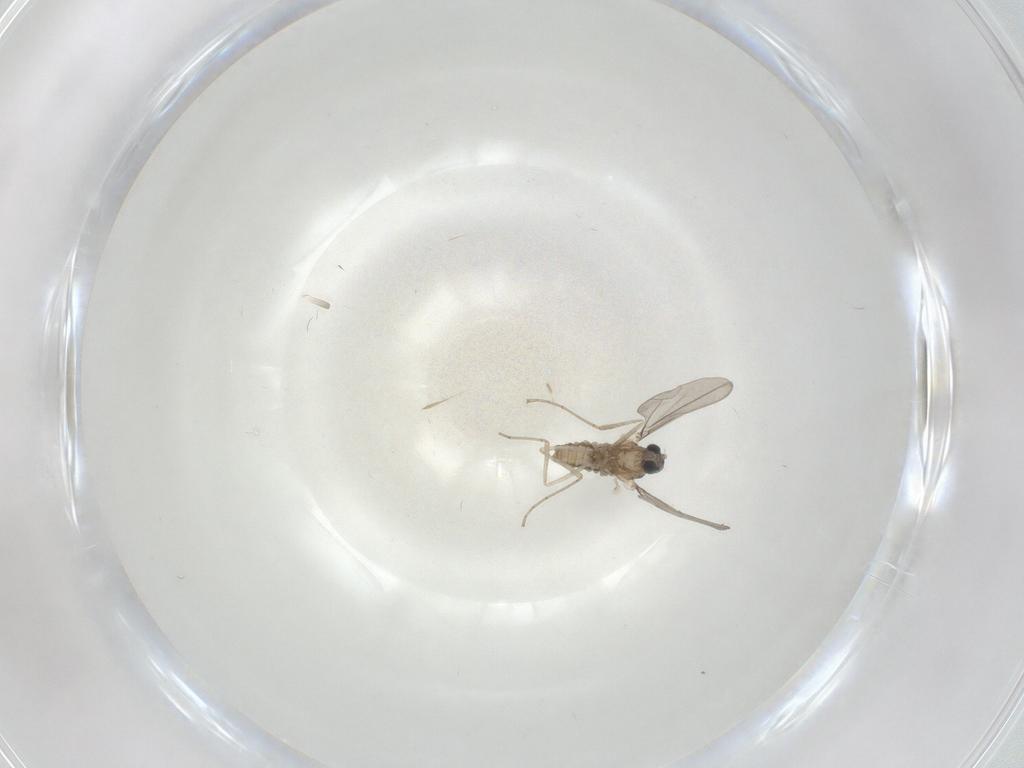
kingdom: Animalia
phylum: Arthropoda
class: Insecta
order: Diptera
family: Cecidomyiidae
